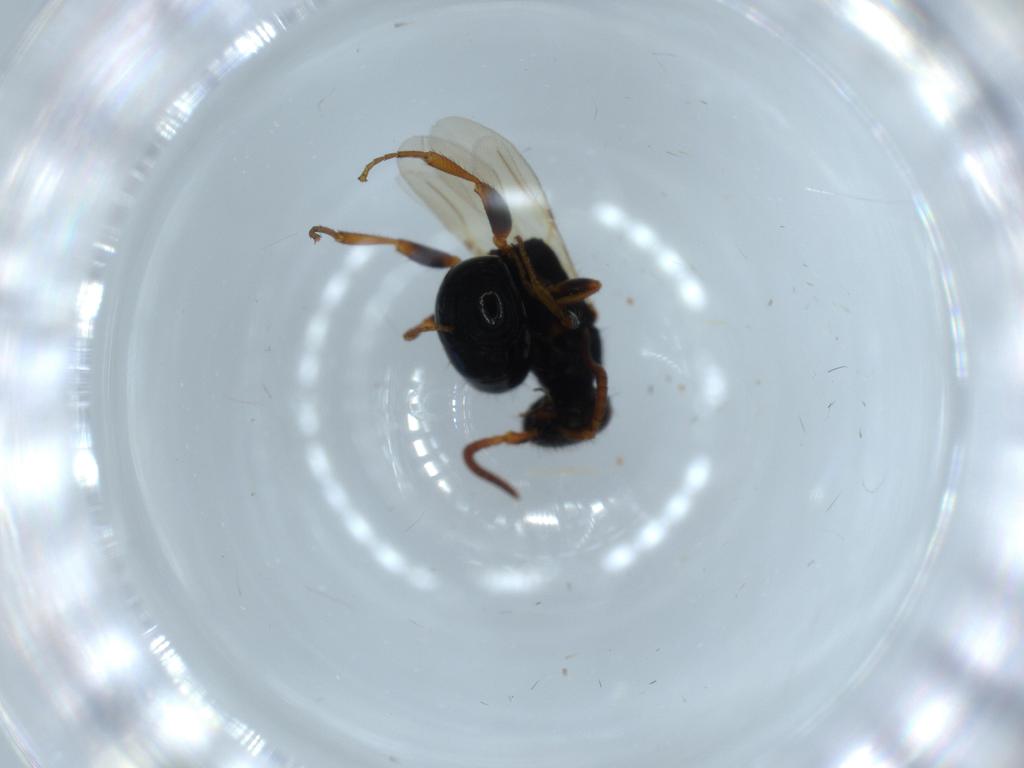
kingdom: Animalia
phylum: Arthropoda
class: Insecta
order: Hymenoptera
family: Bethylidae
